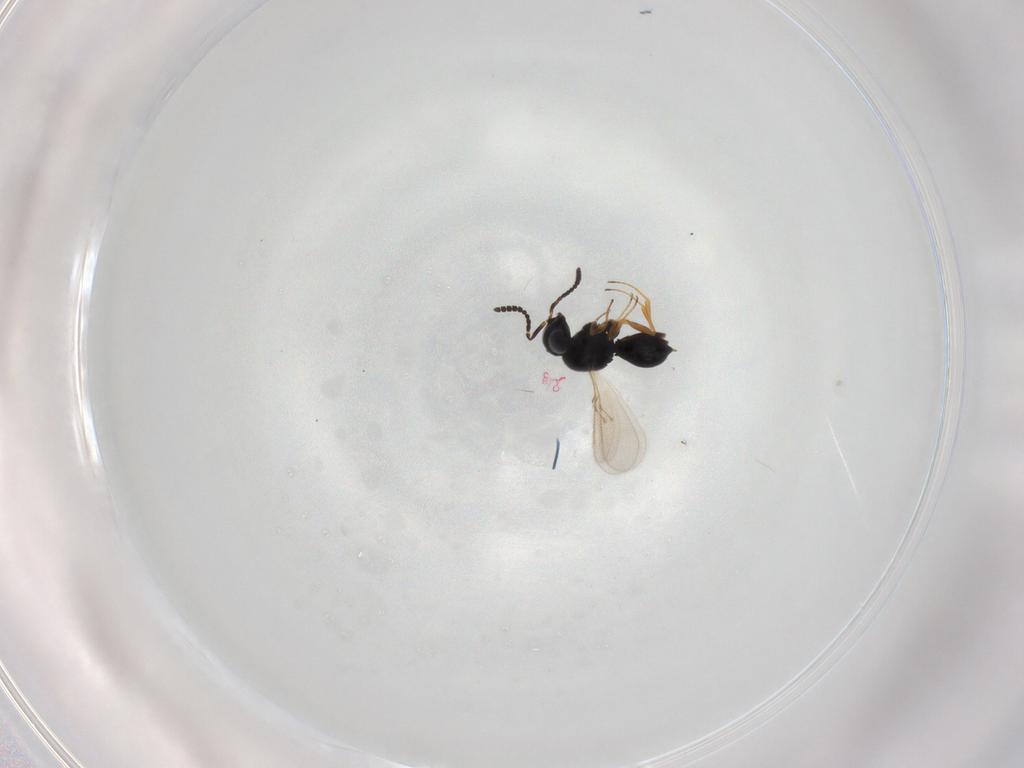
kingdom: Animalia
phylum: Arthropoda
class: Insecta
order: Hymenoptera
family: Scelionidae
